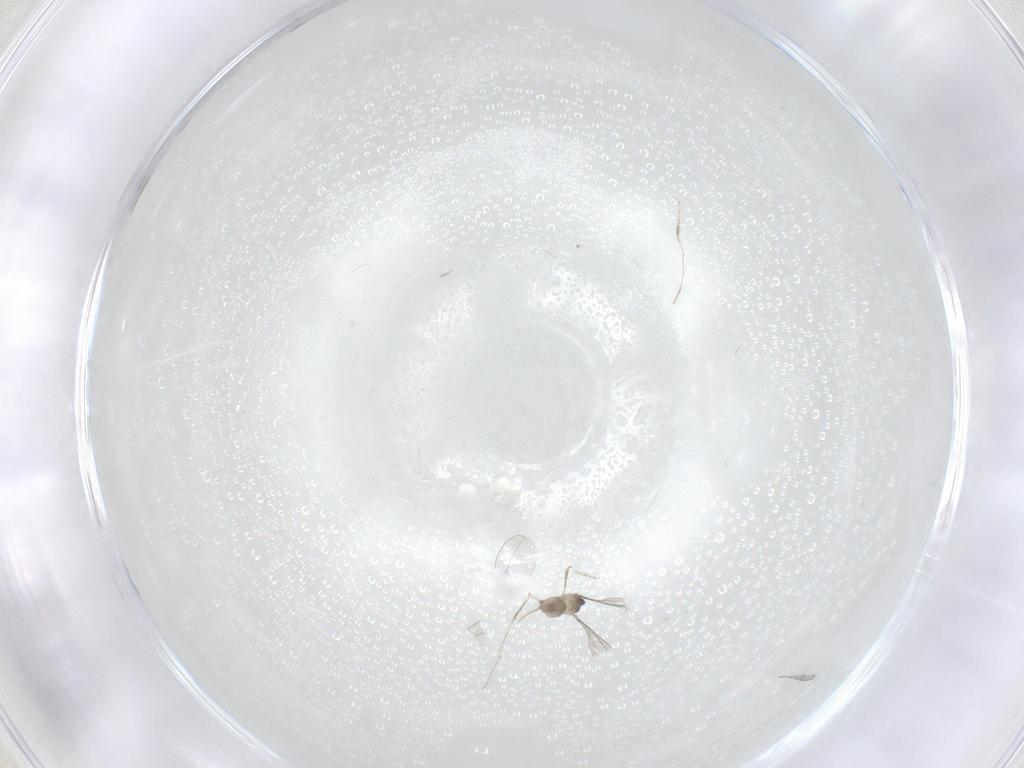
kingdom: Animalia
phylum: Arthropoda
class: Insecta
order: Diptera
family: Cecidomyiidae
